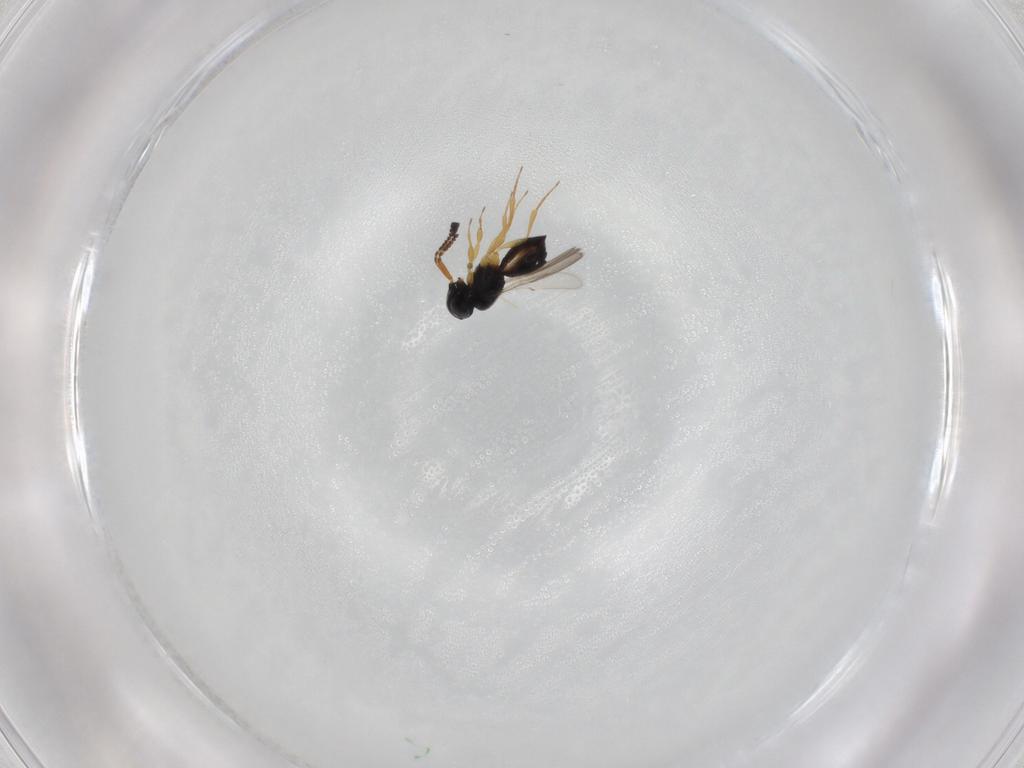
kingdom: Animalia
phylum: Arthropoda
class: Insecta
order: Hymenoptera
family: Scelionidae
